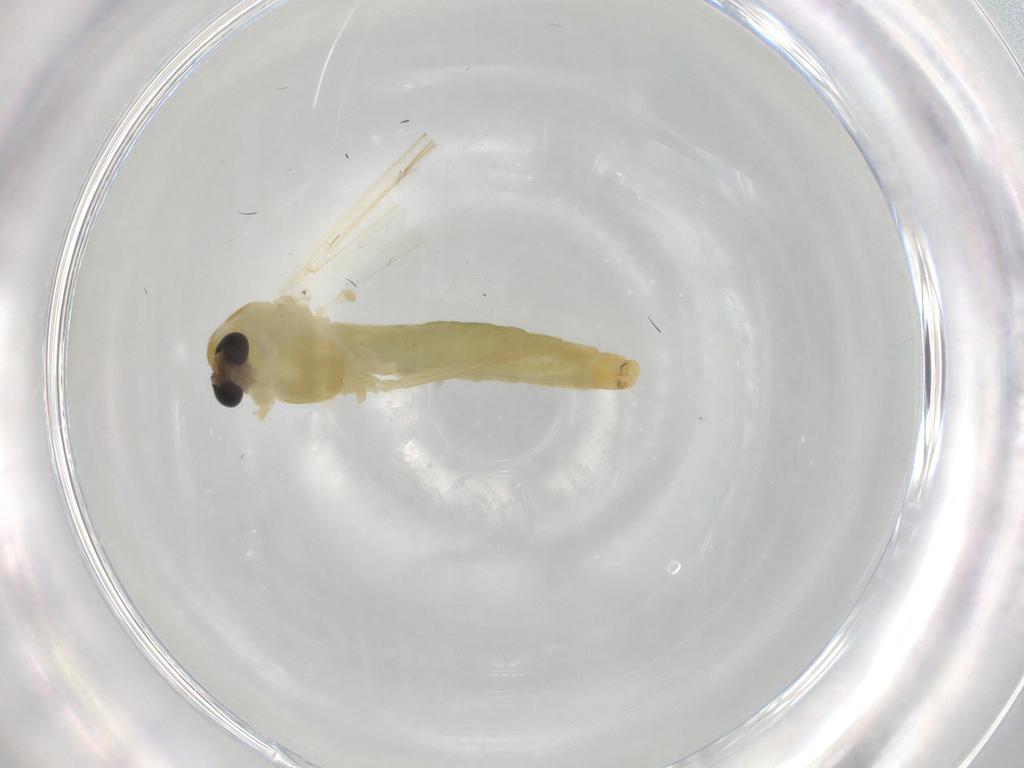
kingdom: Animalia
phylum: Arthropoda
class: Insecta
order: Diptera
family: Chironomidae
